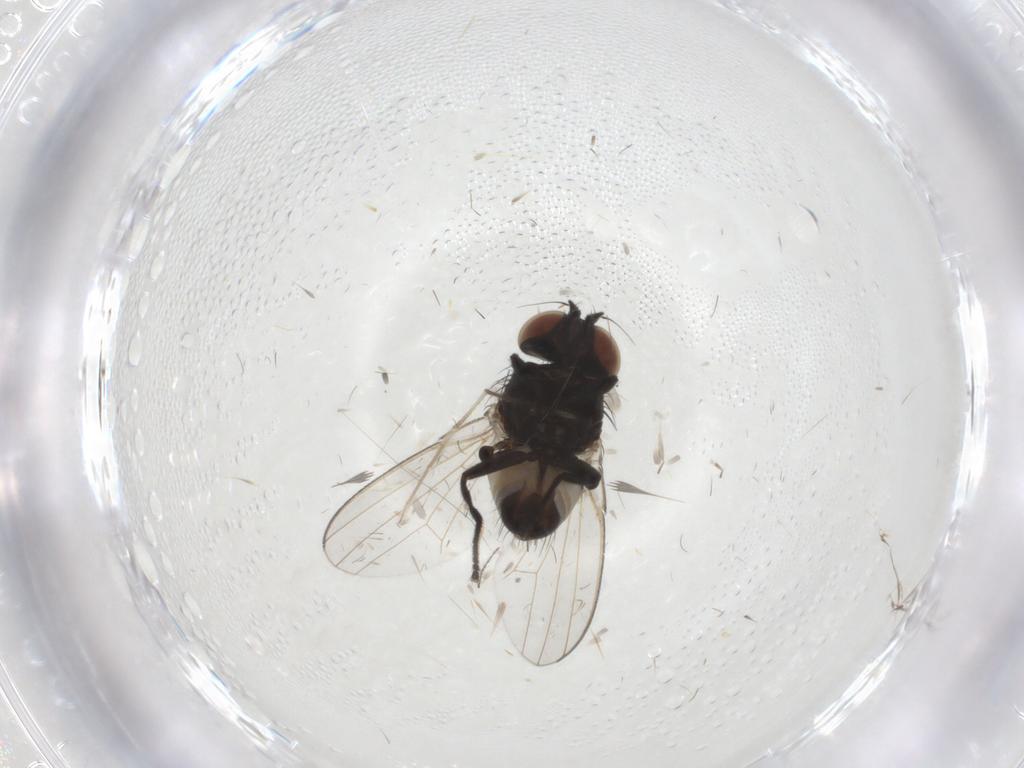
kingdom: Animalia
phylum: Arthropoda
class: Insecta
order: Diptera
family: Milichiidae
